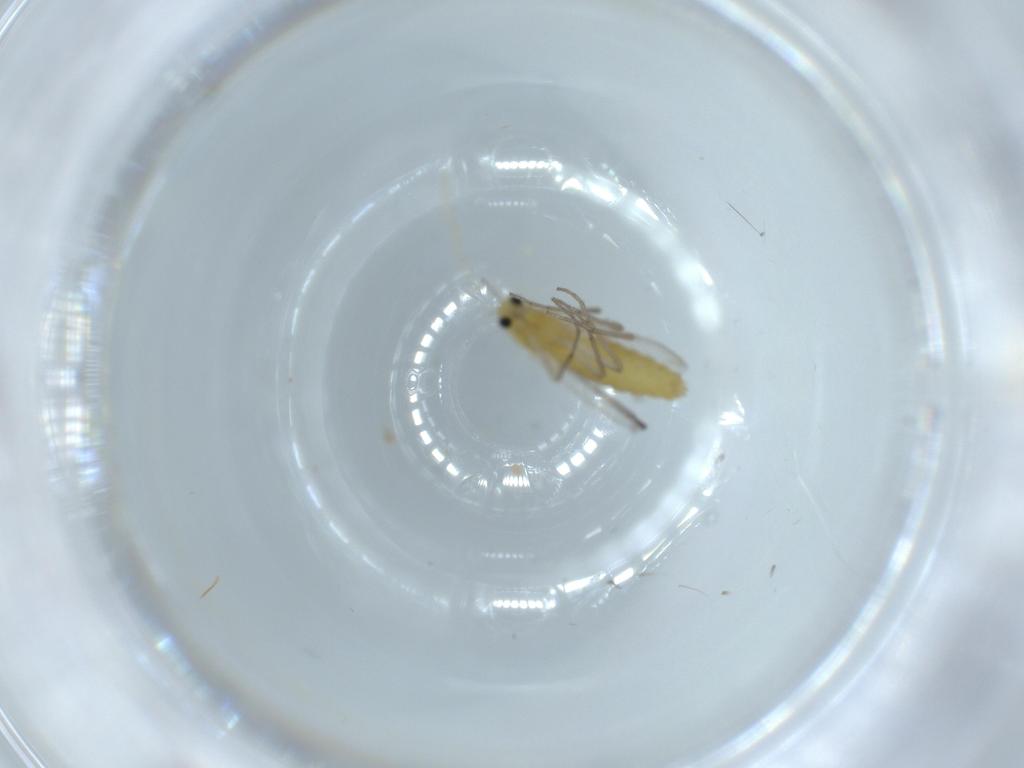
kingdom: Animalia
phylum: Arthropoda
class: Insecta
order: Diptera
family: Chironomidae
